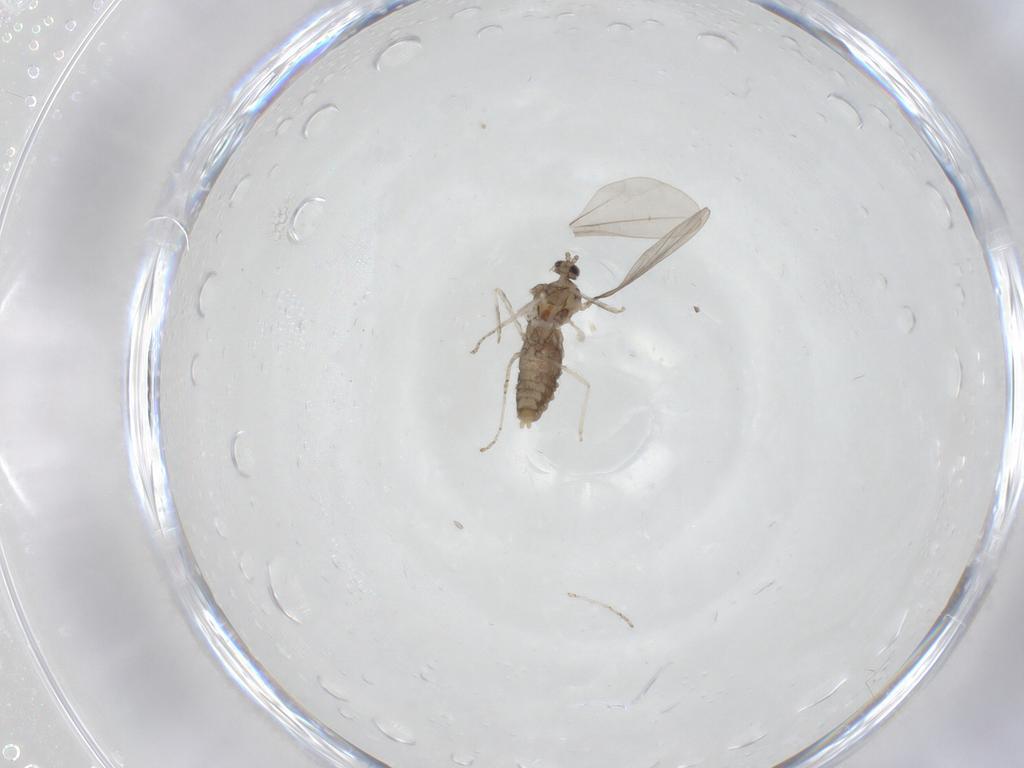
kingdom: Animalia
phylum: Arthropoda
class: Insecta
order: Diptera
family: Cecidomyiidae
